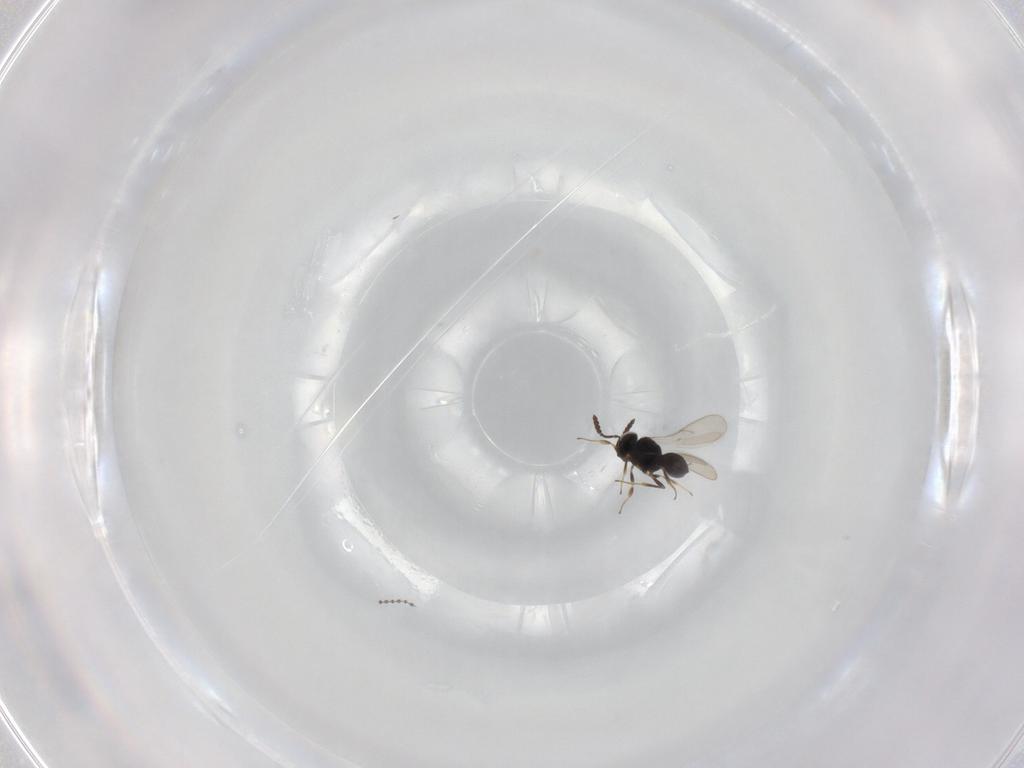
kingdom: Animalia
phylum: Arthropoda
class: Insecta
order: Hymenoptera
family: Scelionidae
